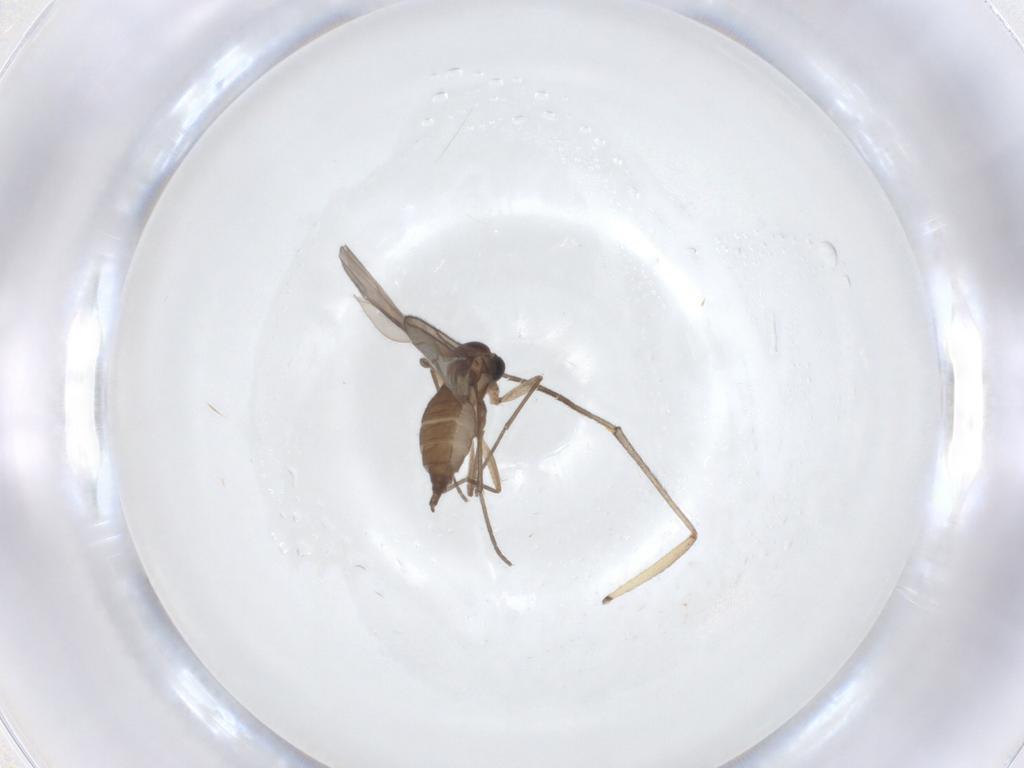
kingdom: Animalia
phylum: Arthropoda
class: Insecta
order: Diptera
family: Sciaridae
